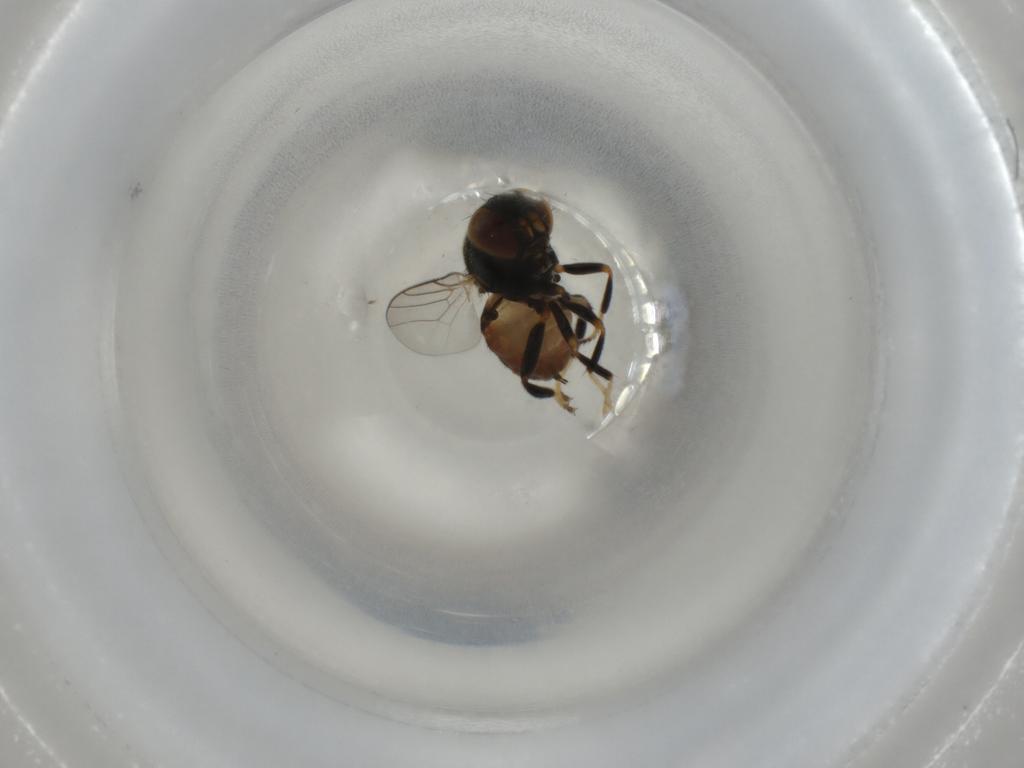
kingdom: Animalia
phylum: Arthropoda
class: Insecta
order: Diptera
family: Chloropidae
